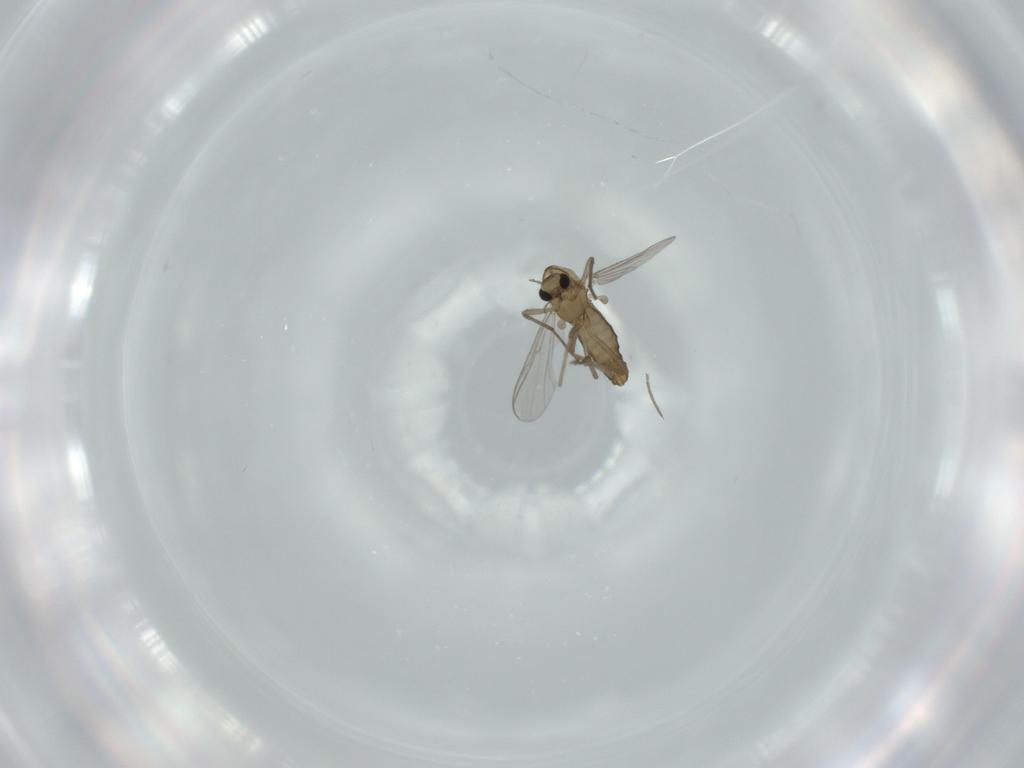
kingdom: Animalia
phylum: Arthropoda
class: Insecta
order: Diptera
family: Chironomidae
